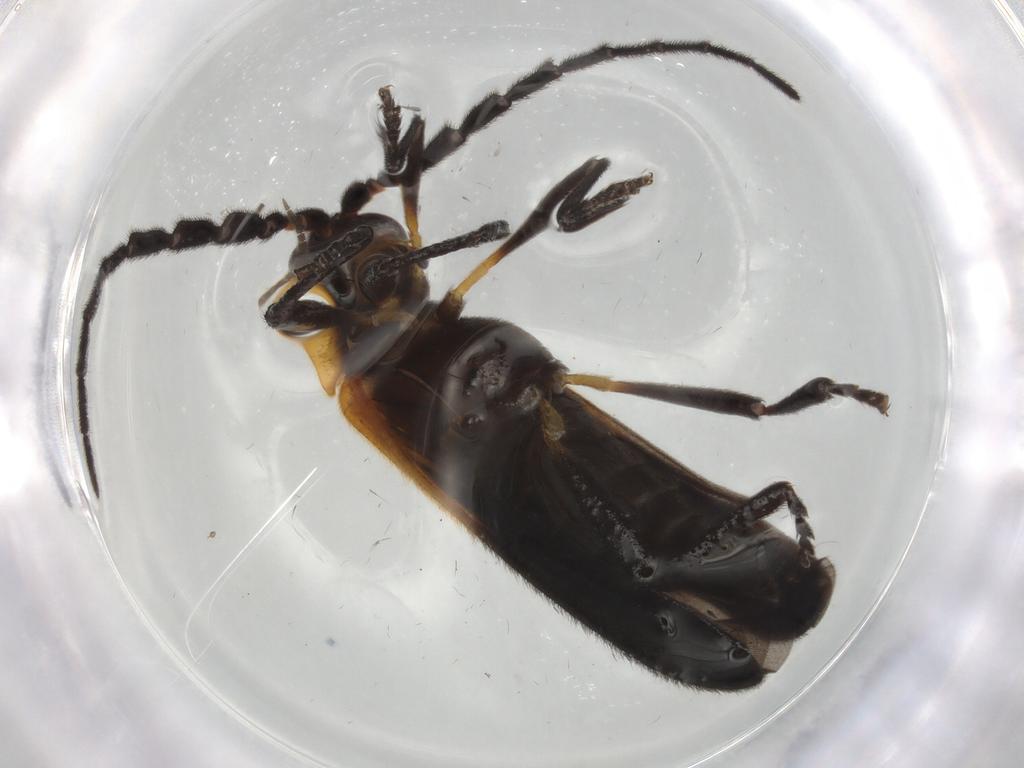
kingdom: Animalia
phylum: Arthropoda
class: Insecta
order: Coleoptera
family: Lycidae
